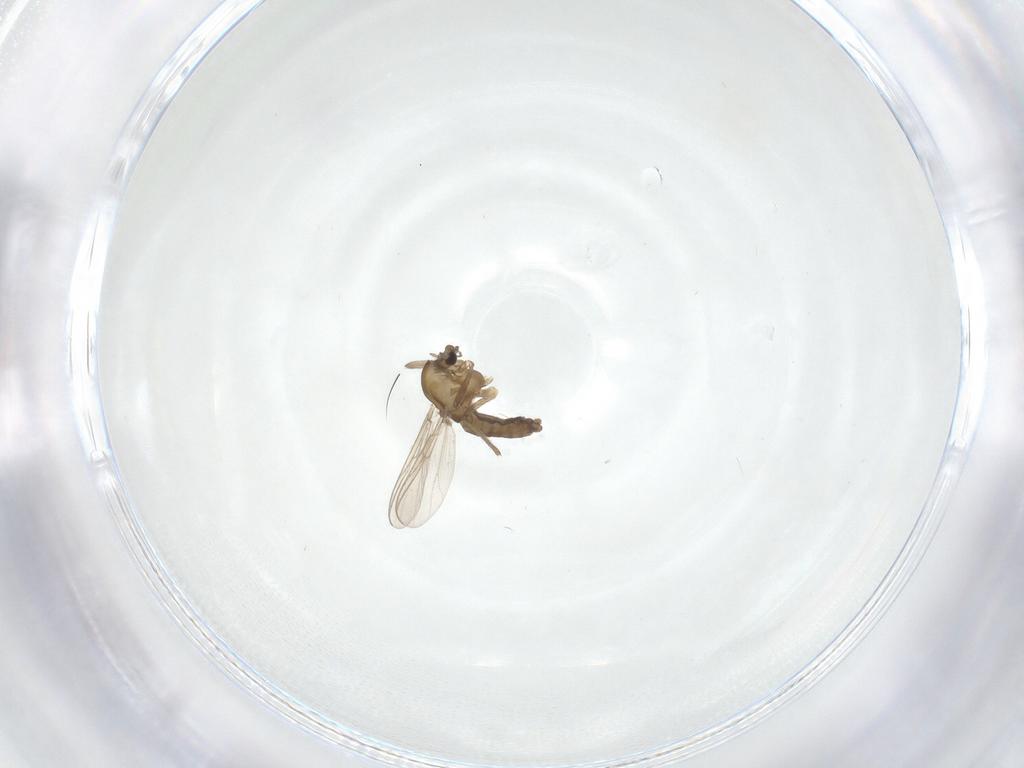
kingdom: Animalia
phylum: Arthropoda
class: Insecta
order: Diptera
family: Chironomidae
